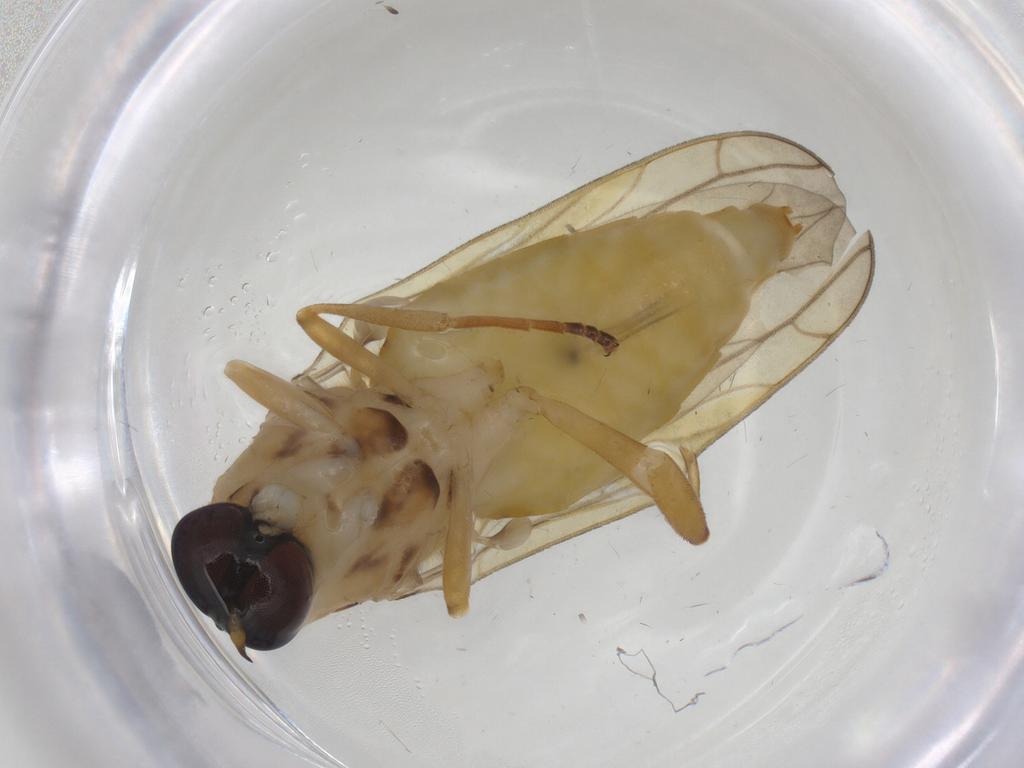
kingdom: Animalia
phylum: Arthropoda
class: Insecta
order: Diptera
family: Stratiomyidae
